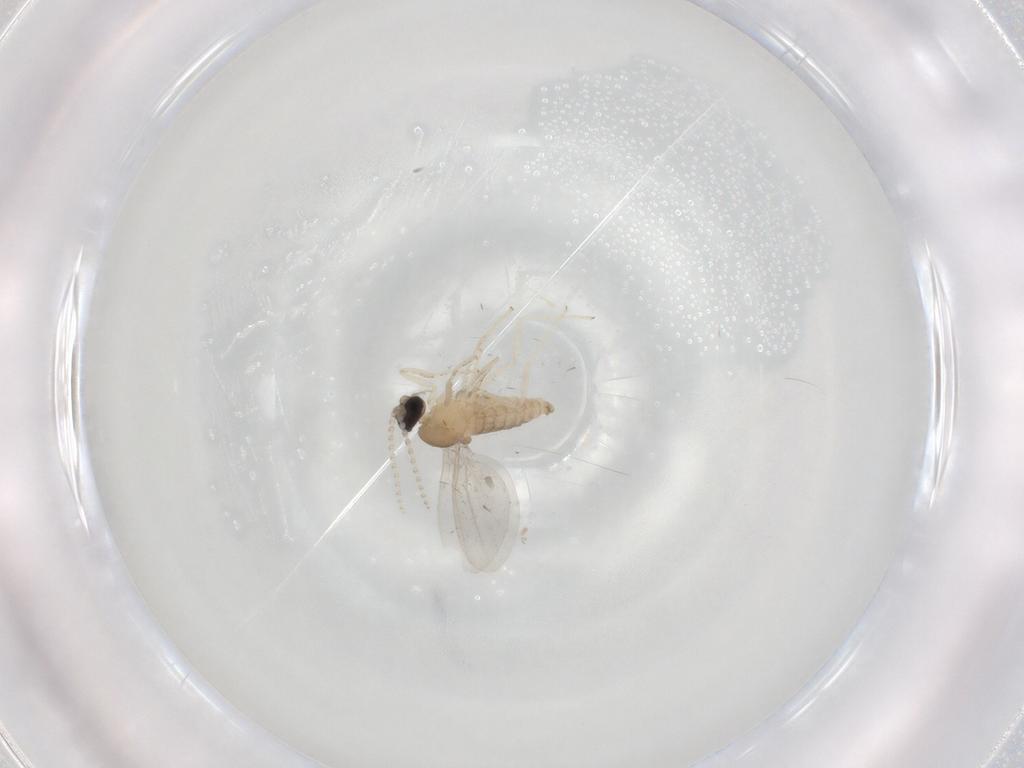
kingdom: Animalia
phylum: Arthropoda
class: Insecta
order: Diptera
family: Cecidomyiidae
